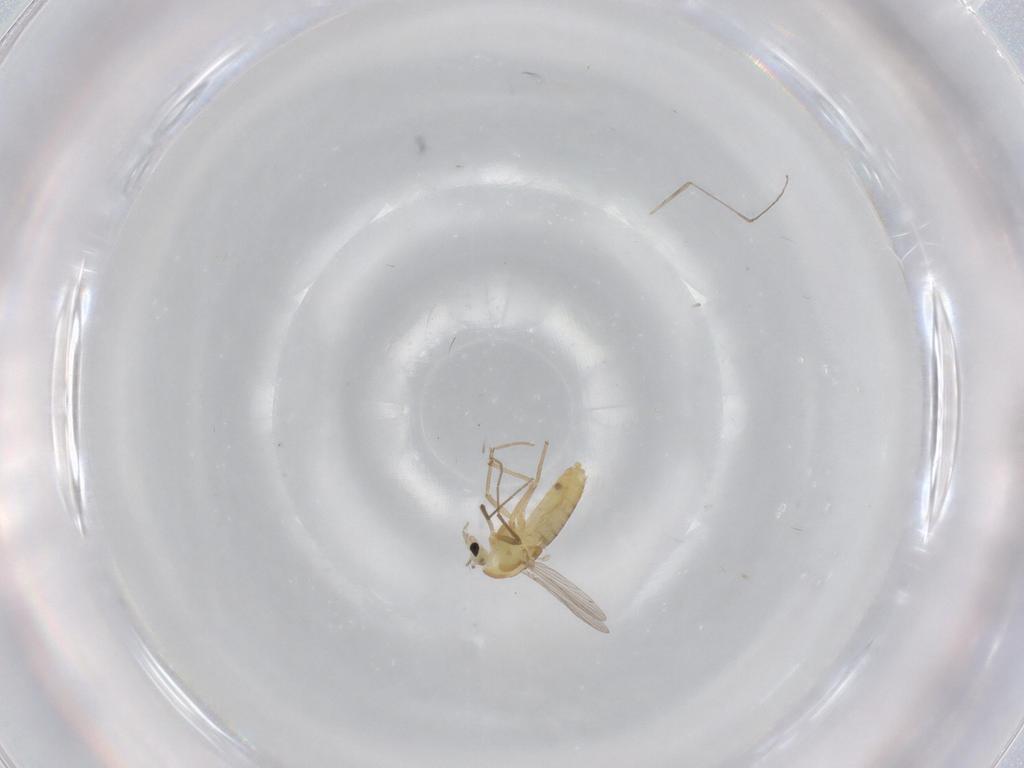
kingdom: Animalia
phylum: Arthropoda
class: Insecta
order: Diptera
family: Chironomidae
